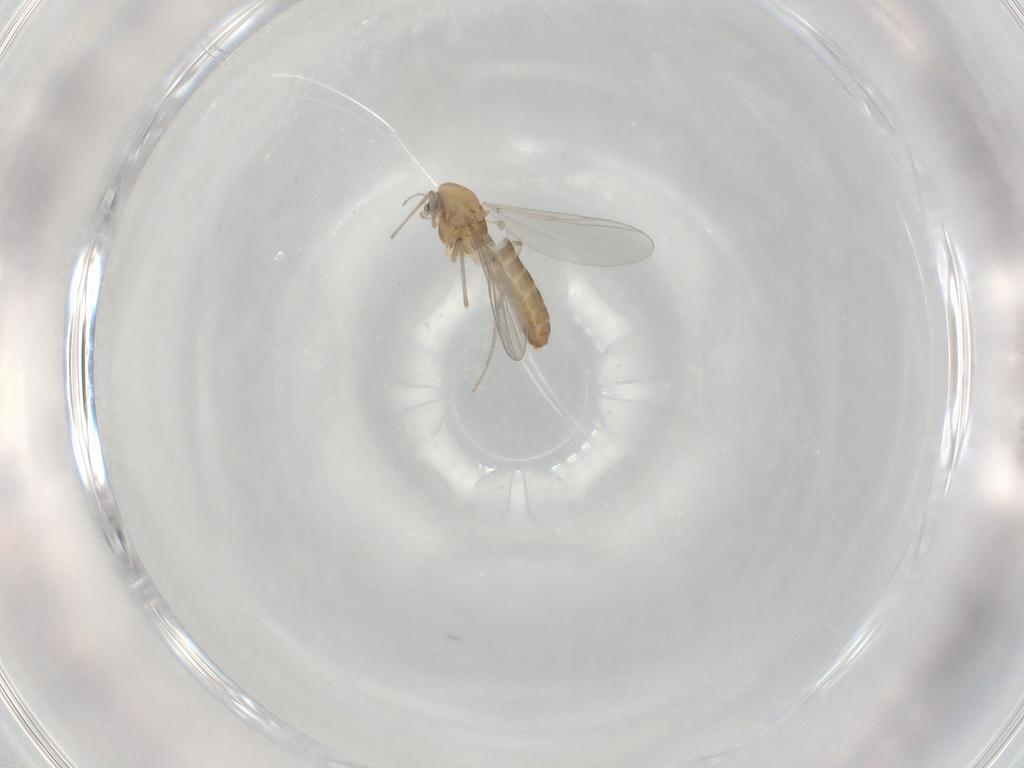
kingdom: Animalia
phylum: Arthropoda
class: Insecta
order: Diptera
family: Chironomidae
